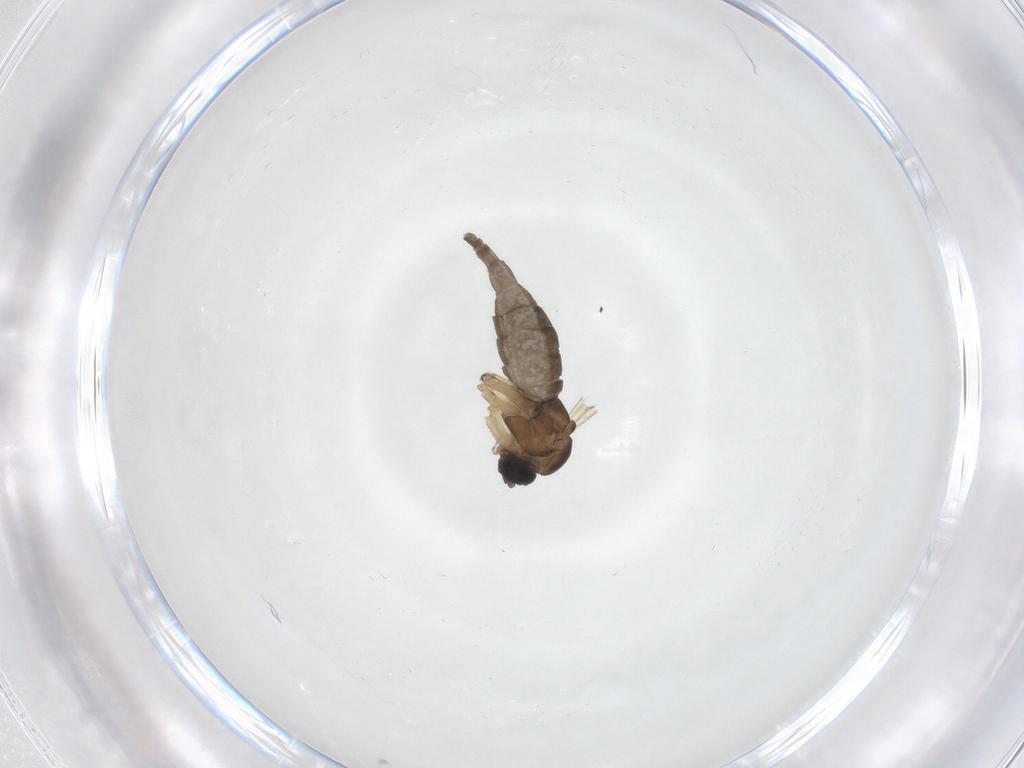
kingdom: Animalia
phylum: Arthropoda
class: Insecta
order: Diptera
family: Sciaridae
